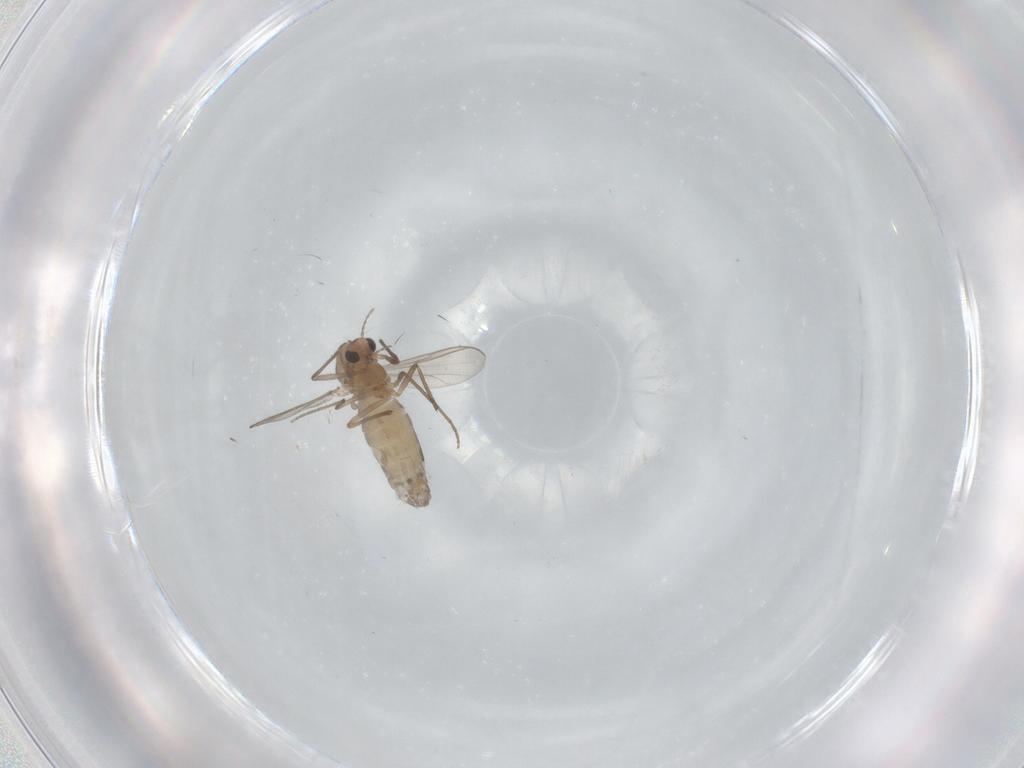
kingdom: Animalia
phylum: Arthropoda
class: Insecta
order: Diptera
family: Chironomidae
